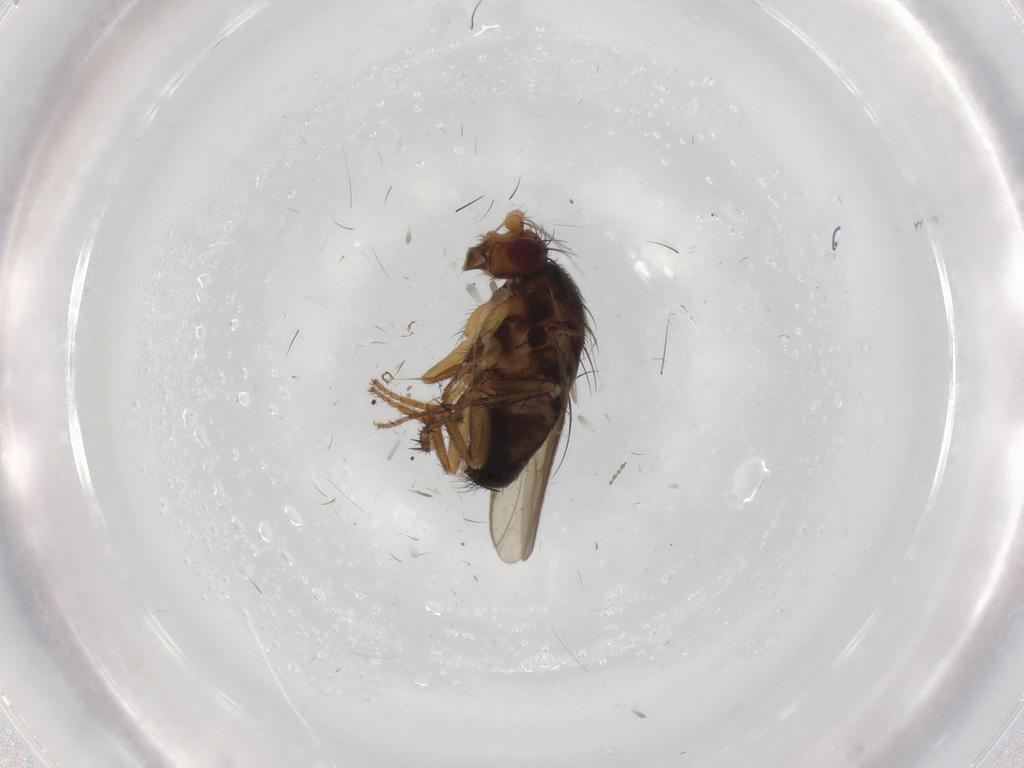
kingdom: Animalia
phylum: Arthropoda
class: Insecta
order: Diptera
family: Sphaeroceridae
